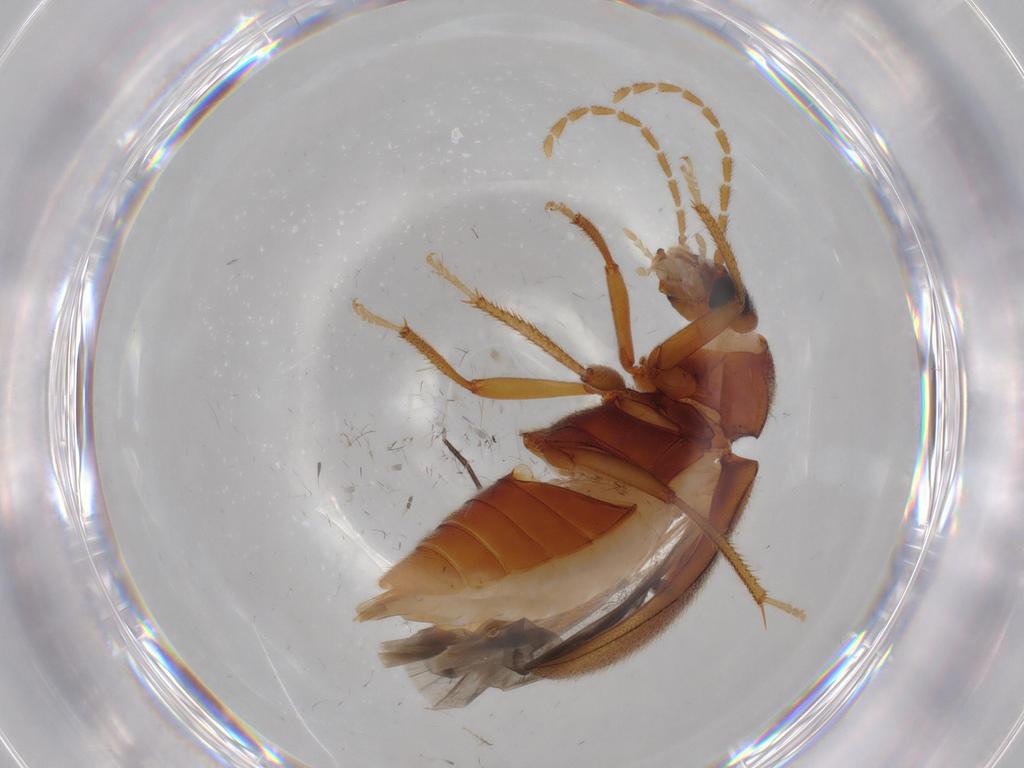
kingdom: Animalia
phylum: Arthropoda
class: Insecta
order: Coleoptera
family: Ptilodactylidae
